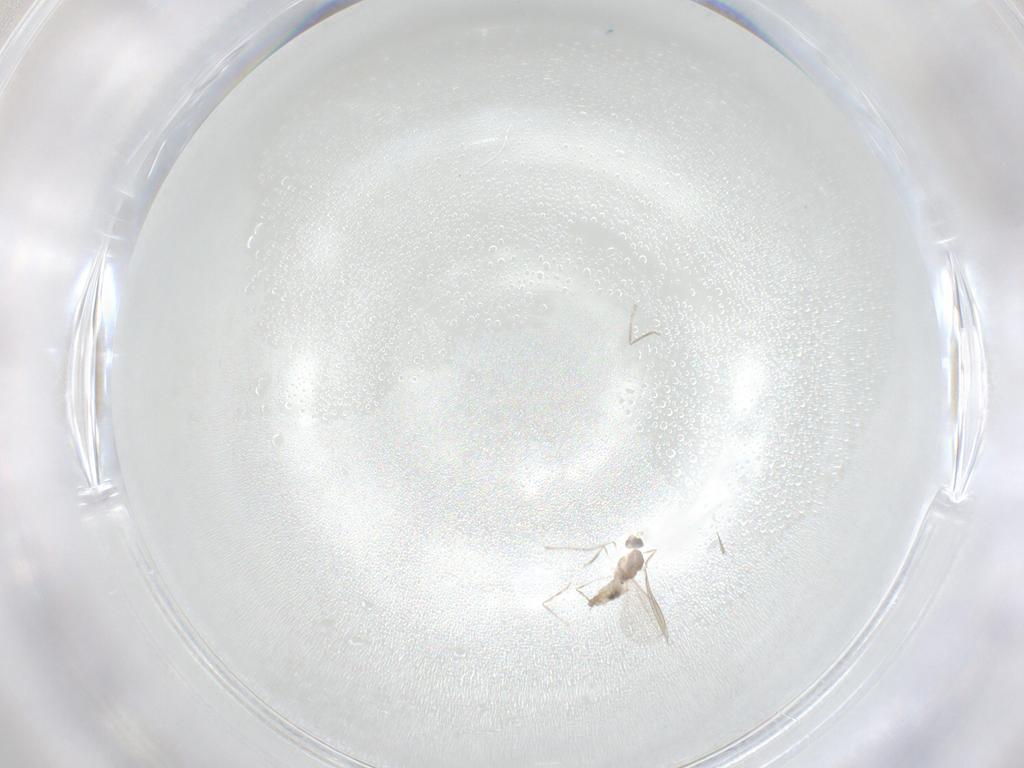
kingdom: Animalia
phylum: Arthropoda
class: Insecta
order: Diptera
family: Cecidomyiidae
